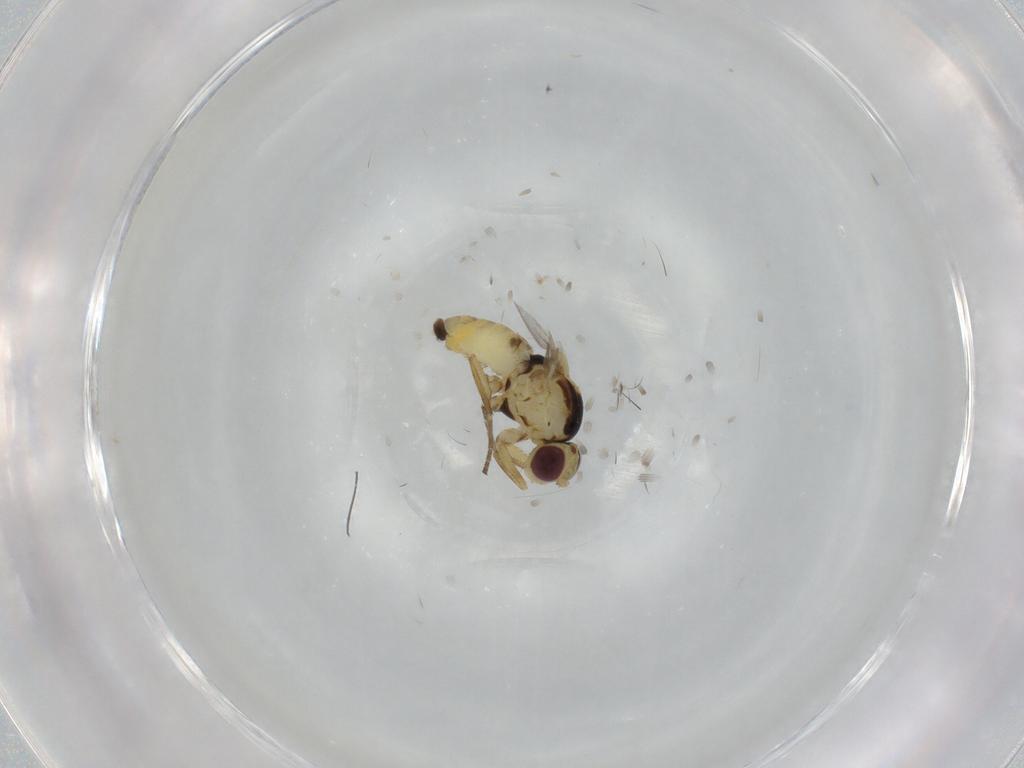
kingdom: Animalia
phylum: Arthropoda
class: Insecta
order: Diptera
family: Agromyzidae
